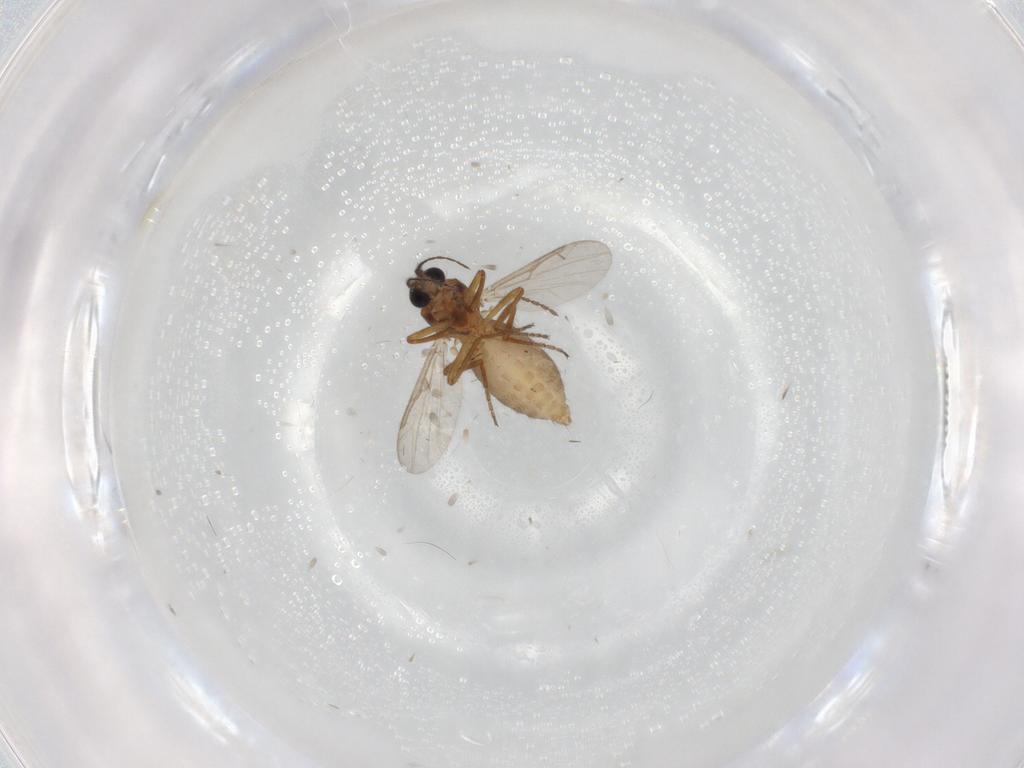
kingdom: Animalia
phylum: Arthropoda
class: Insecta
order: Diptera
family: Ceratopogonidae
